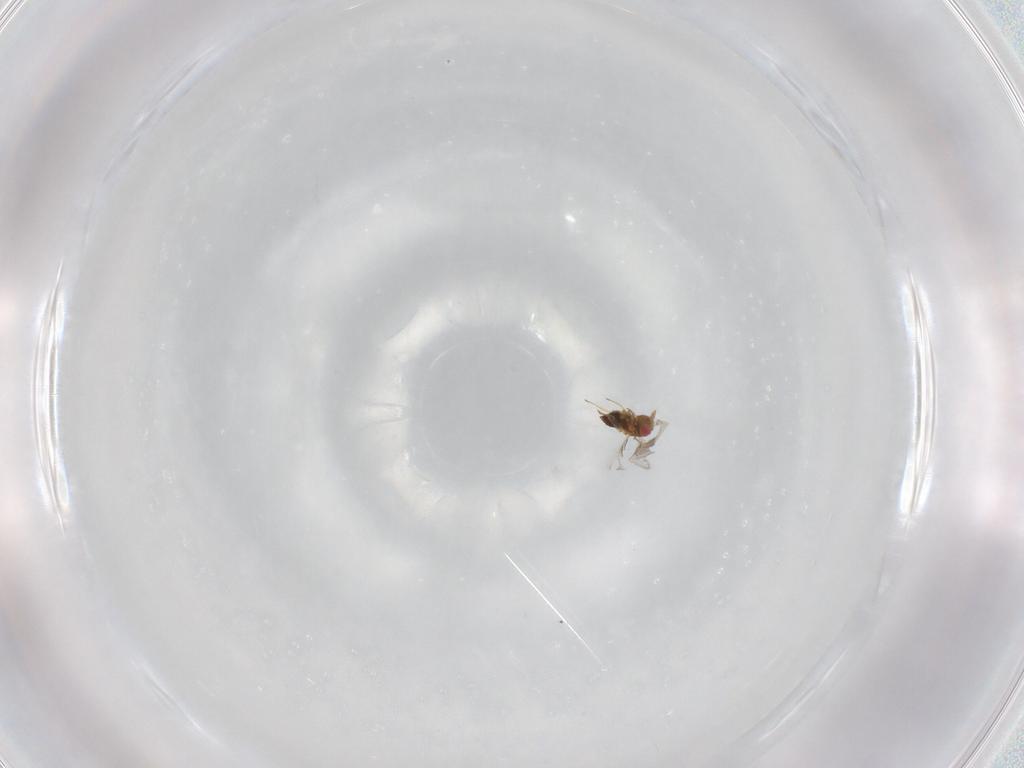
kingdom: Animalia
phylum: Arthropoda
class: Insecta
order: Hymenoptera
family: Trichogrammatidae
